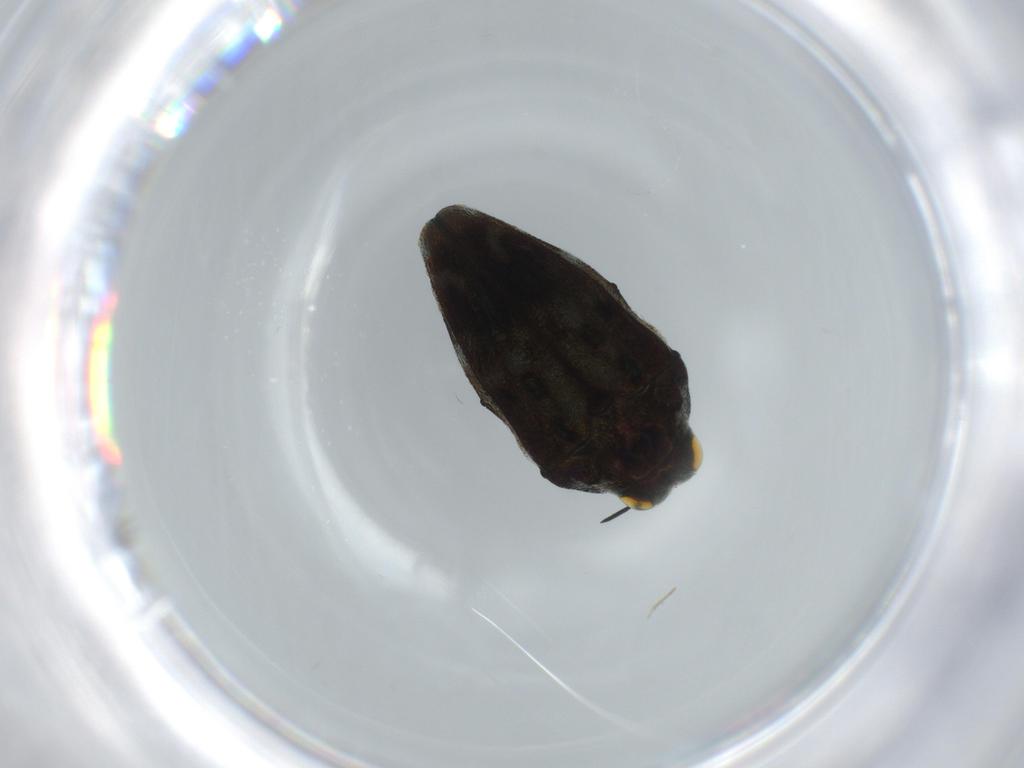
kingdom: Animalia
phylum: Arthropoda
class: Insecta
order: Coleoptera
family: Buprestidae
